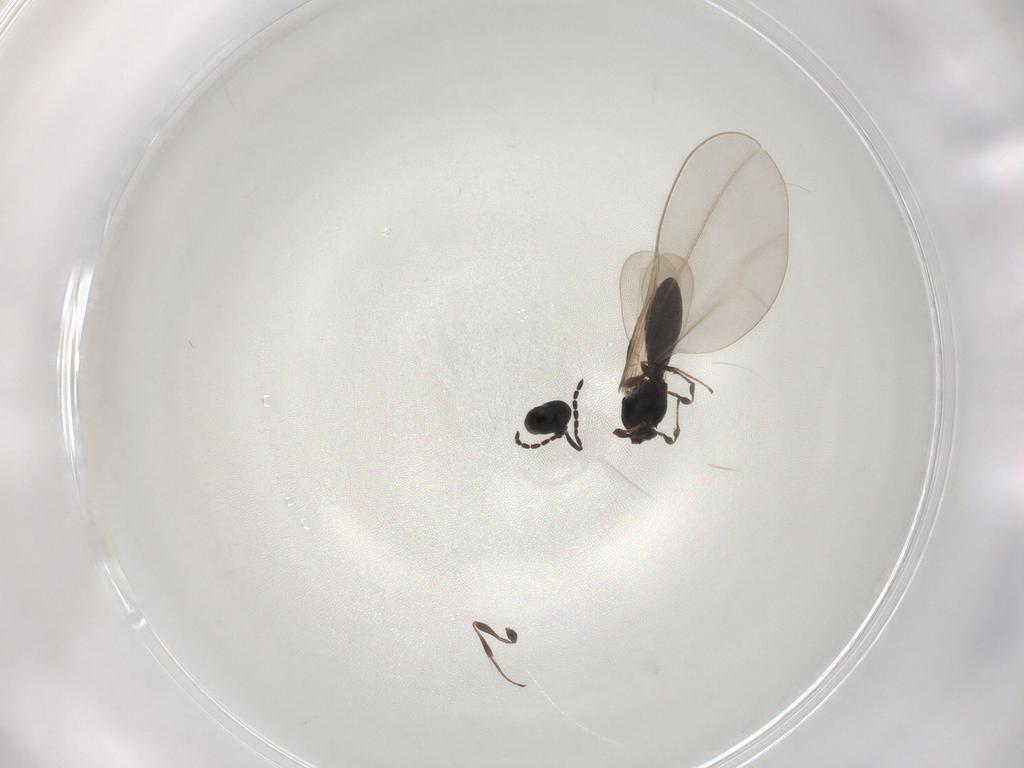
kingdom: Animalia
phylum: Arthropoda
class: Insecta
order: Hymenoptera
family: Platygastridae
